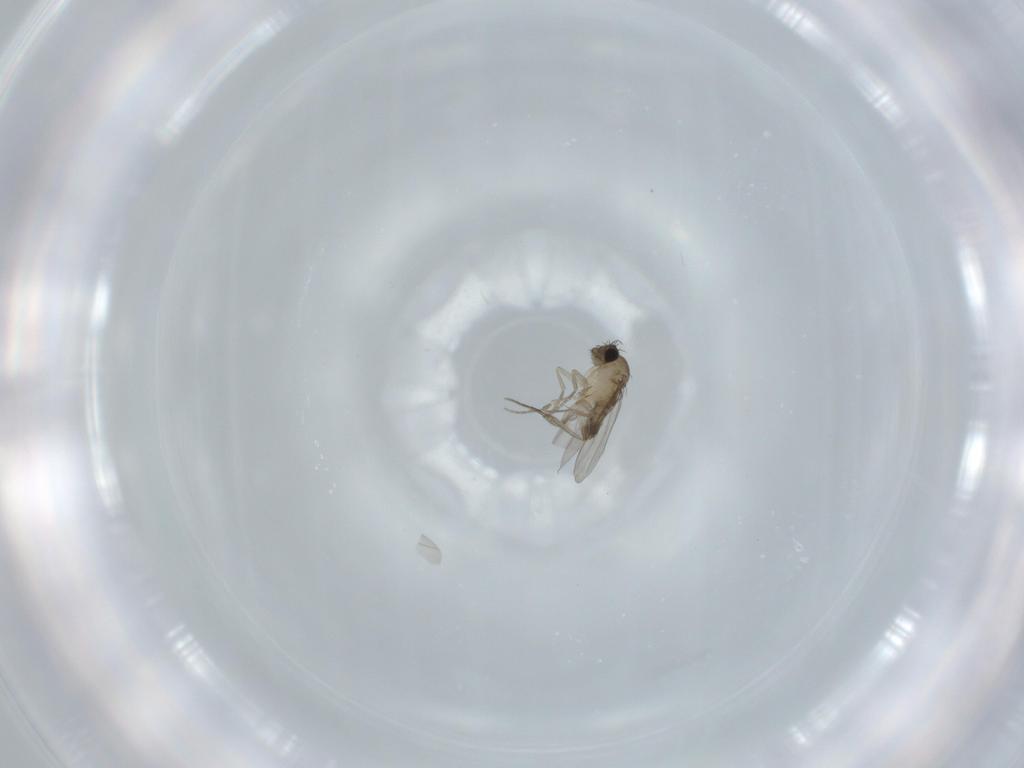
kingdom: Animalia
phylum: Arthropoda
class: Insecta
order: Diptera
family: Phoridae
